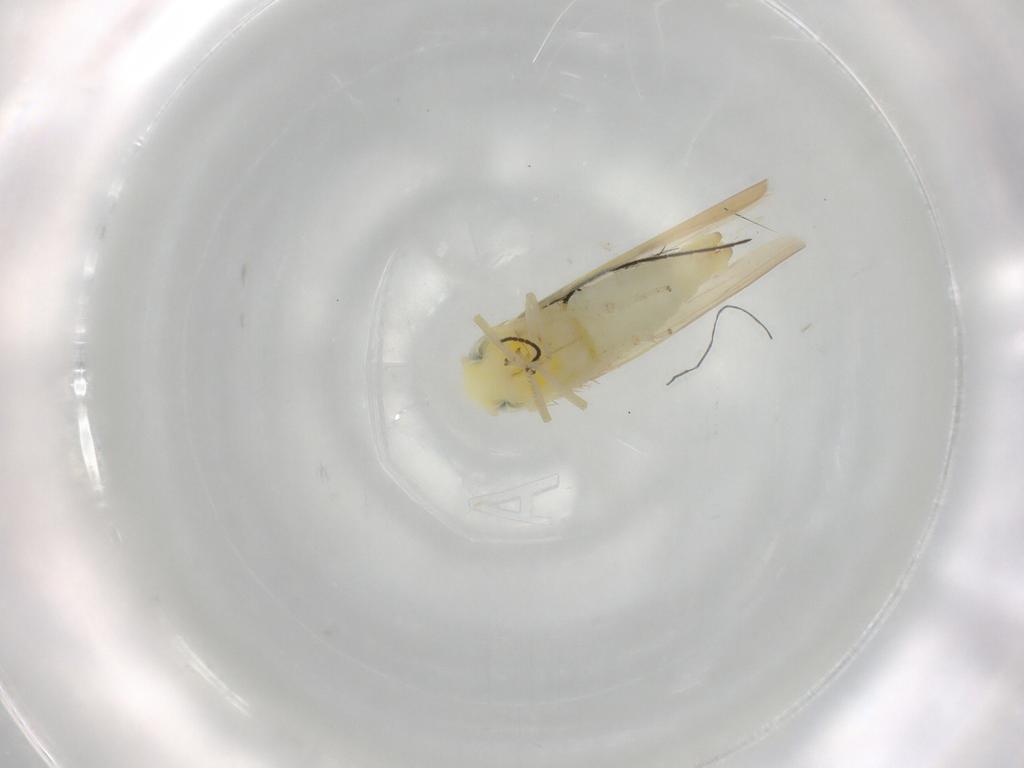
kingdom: Animalia
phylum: Arthropoda
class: Insecta
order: Hemiptera
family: Cicadellidae
